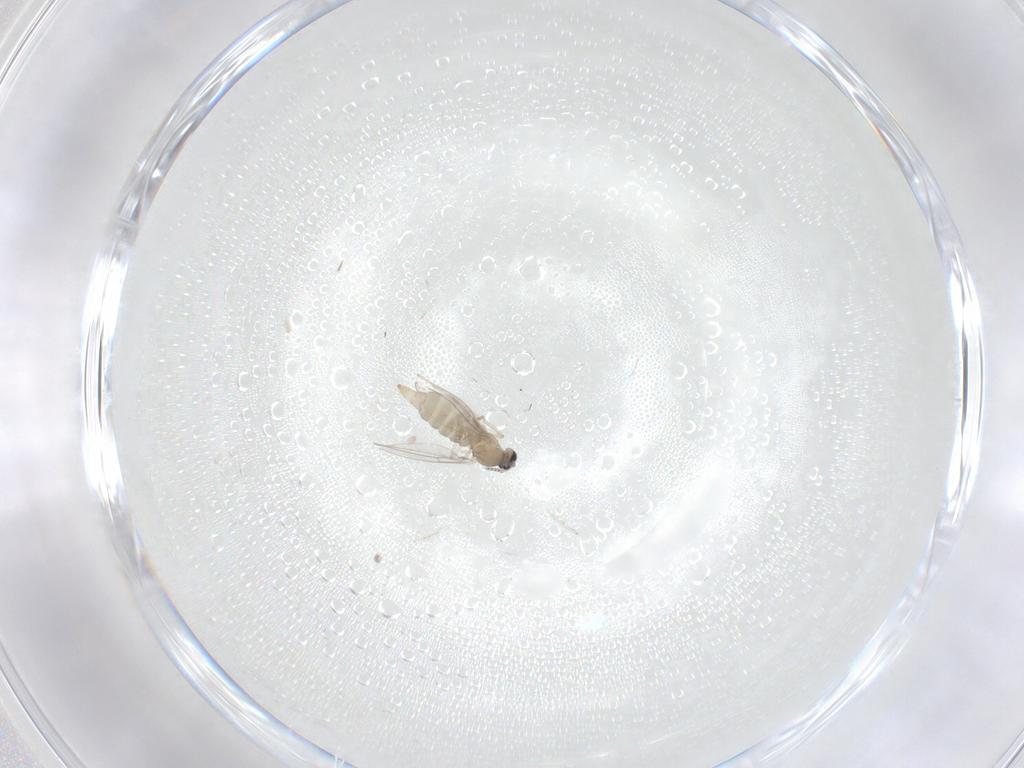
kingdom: Animalia
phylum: Arthropoda
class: Insecta
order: Diptera
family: Cecidomyiidae
